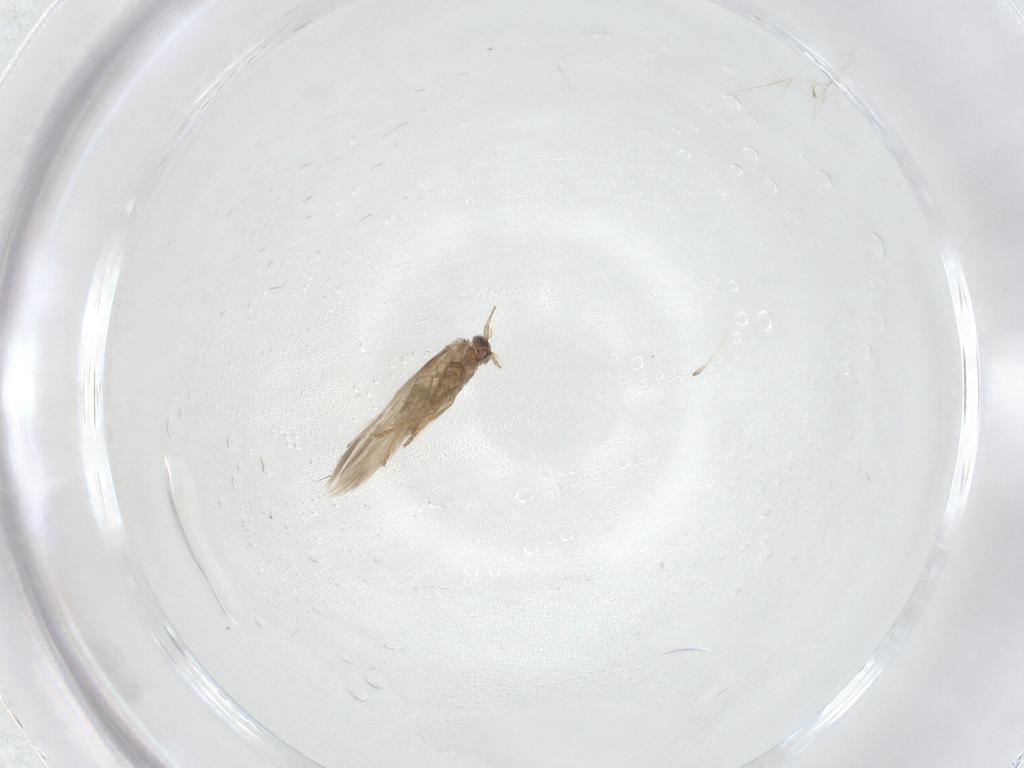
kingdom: Animalia
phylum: Arthropoda
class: Insecta
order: Lepidoptera
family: Nepticulidae
